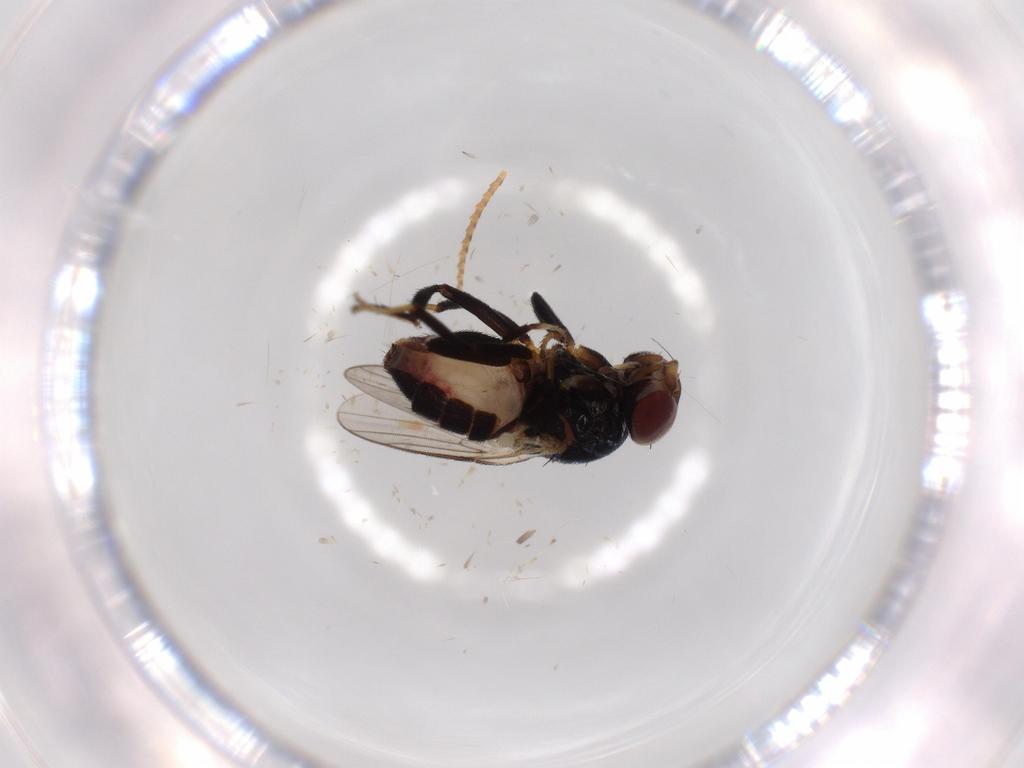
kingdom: Animalia
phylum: Arthropoda
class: Insecta
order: Diptera
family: Chloropidae
